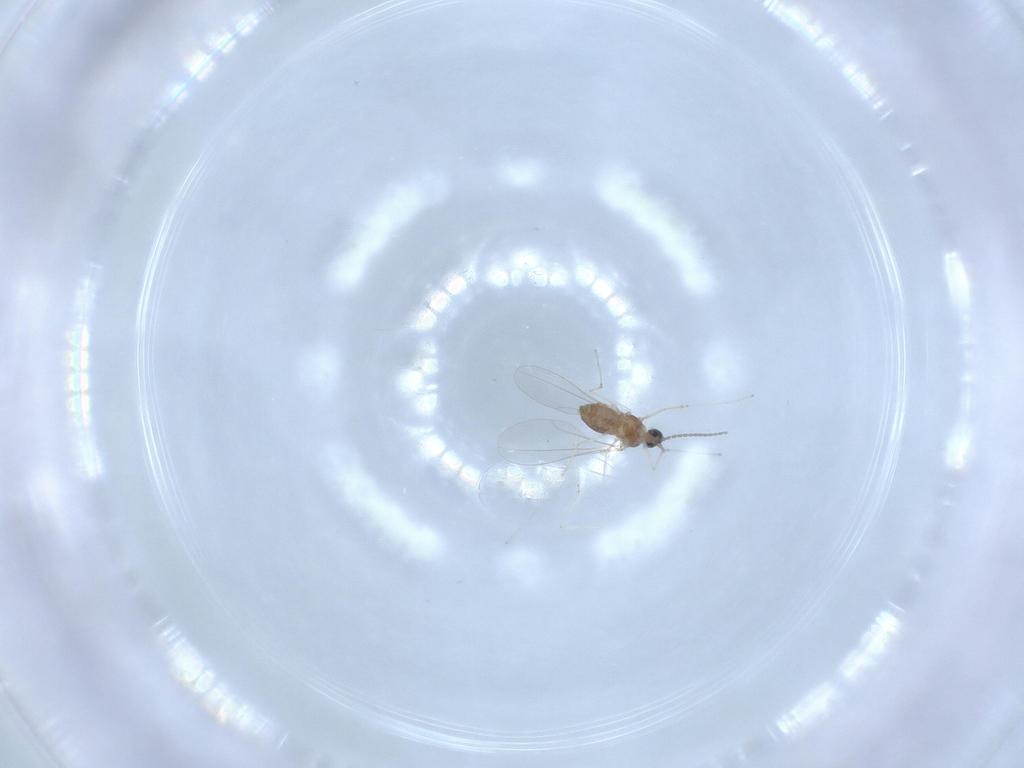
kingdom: Animalia
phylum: Arthropoda
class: Insecta
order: Diptera
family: Cecidomyiidae
